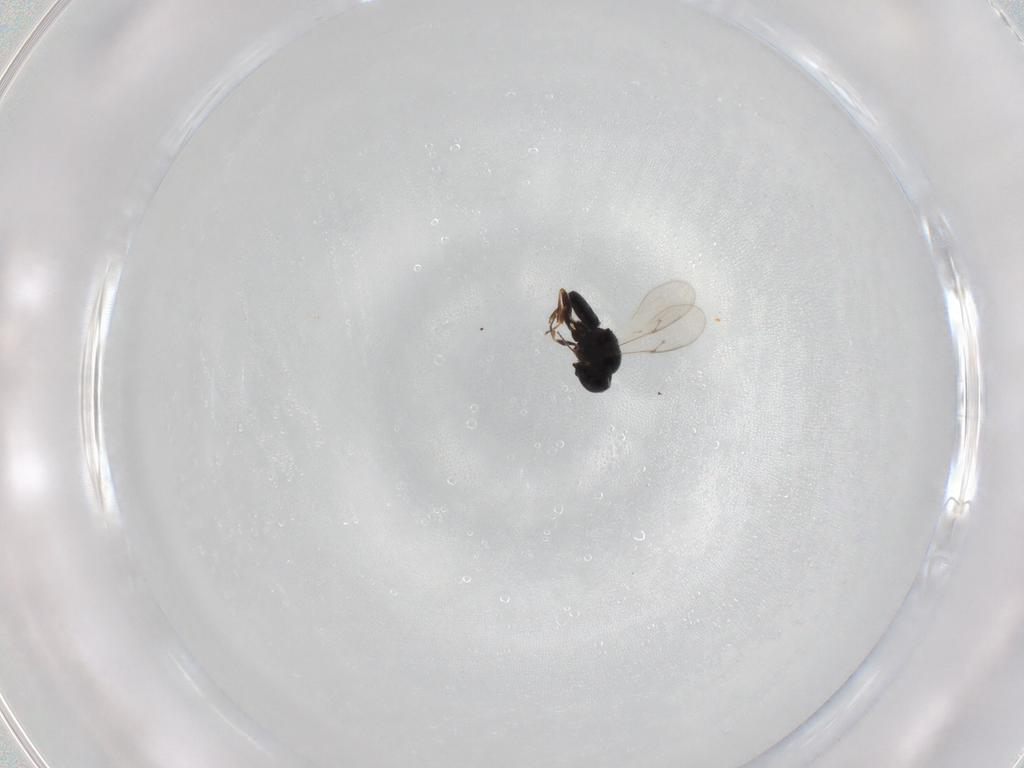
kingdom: Animalia
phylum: Arthropoda
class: Insecta
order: Hymenoptera
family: Scelionidae
